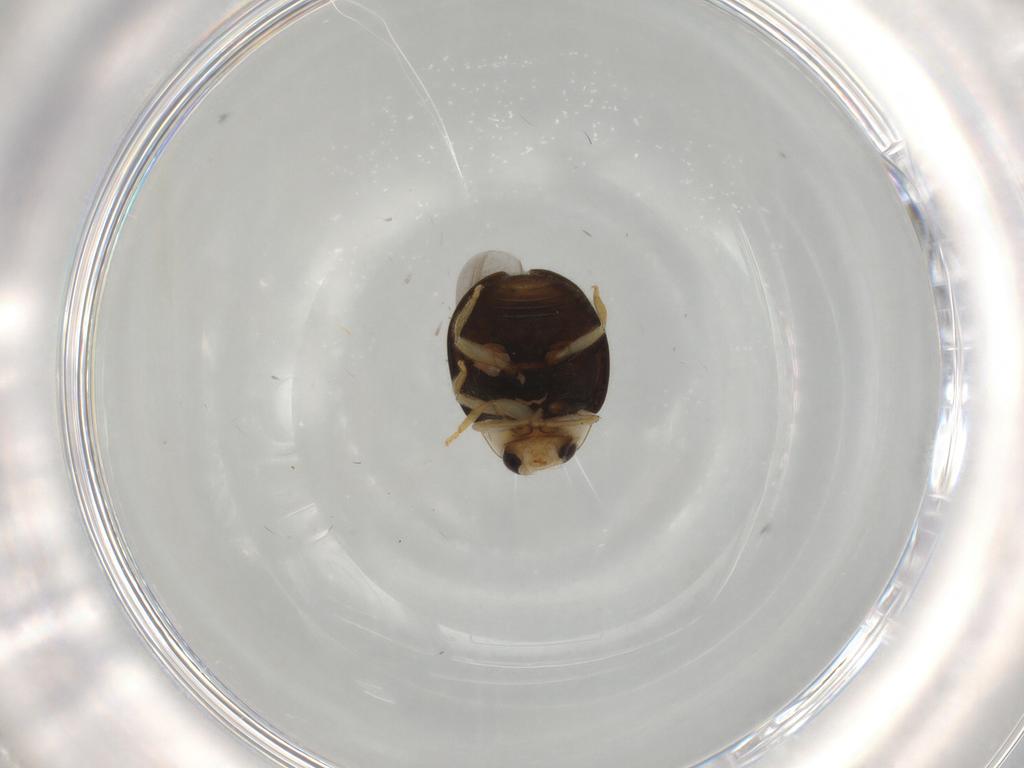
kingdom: Animalia
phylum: Arthropoda
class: Insecta
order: Coleoptera
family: Coccinellidae
